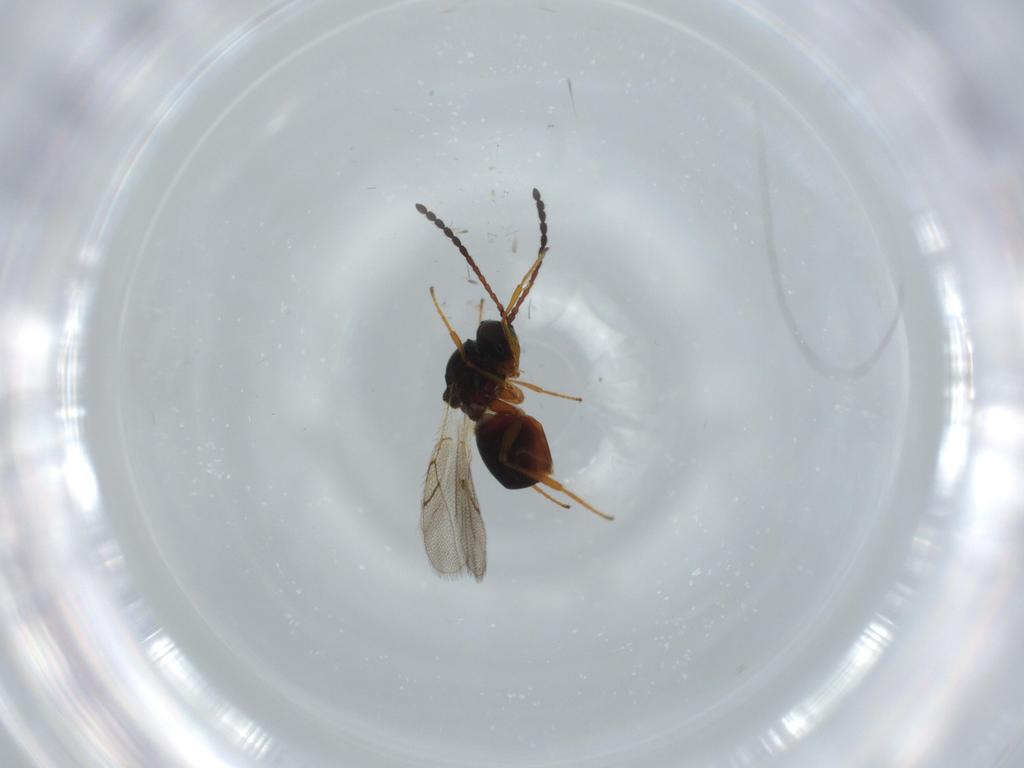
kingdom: Animalia
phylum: Arthropoda
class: Insecta
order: Hymenoptera
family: Figitidae
